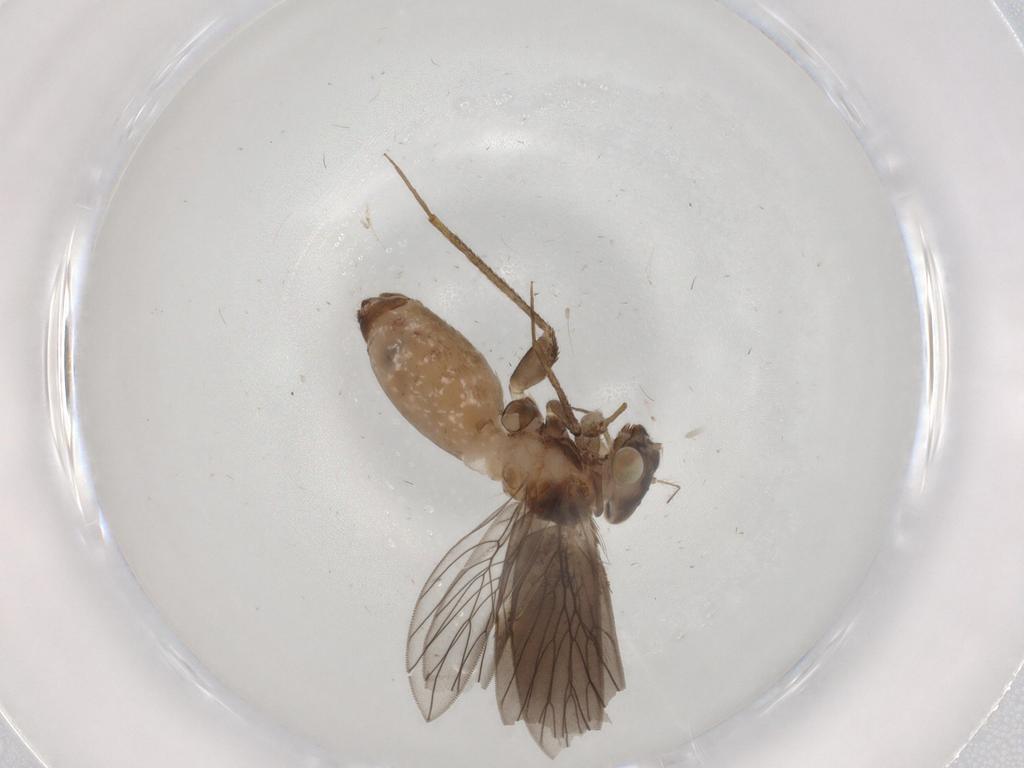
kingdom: Animalia
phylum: Arthropoda
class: Insecta
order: Psocodea
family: Lepidopsocidae
